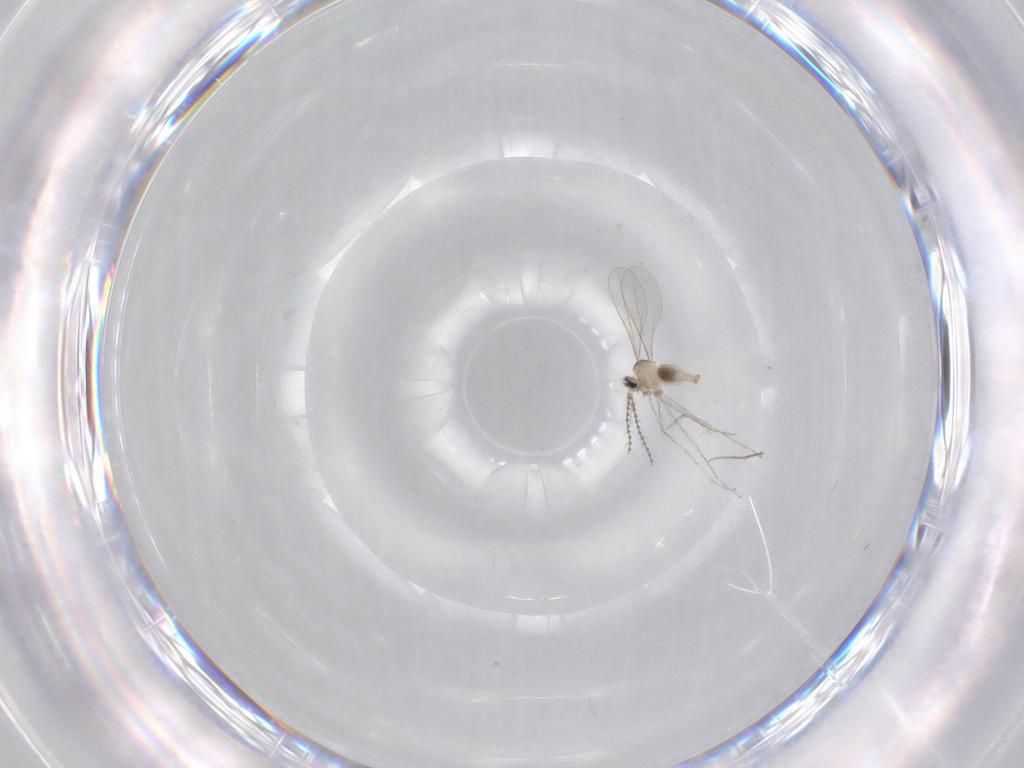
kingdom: Animalia
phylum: Arthropoda
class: Insecta
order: Diptera
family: Cecidomyiidae
